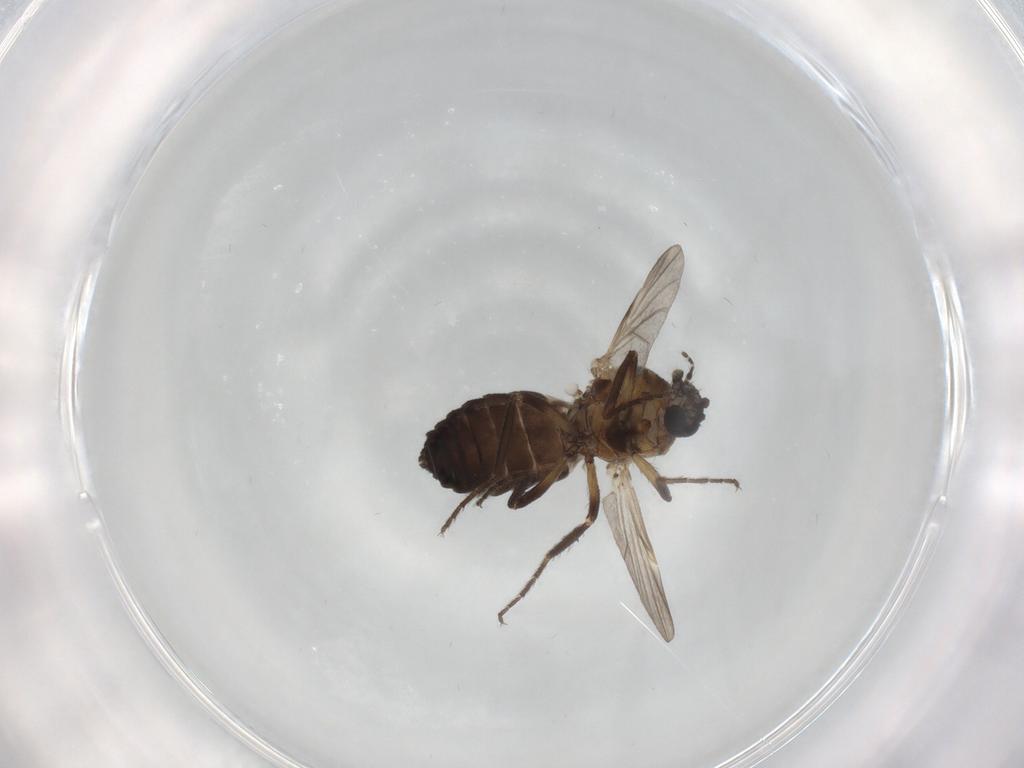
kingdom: Animalia
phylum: Arthropoda
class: Insecta
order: Diptera
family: Ceratopogonidae
